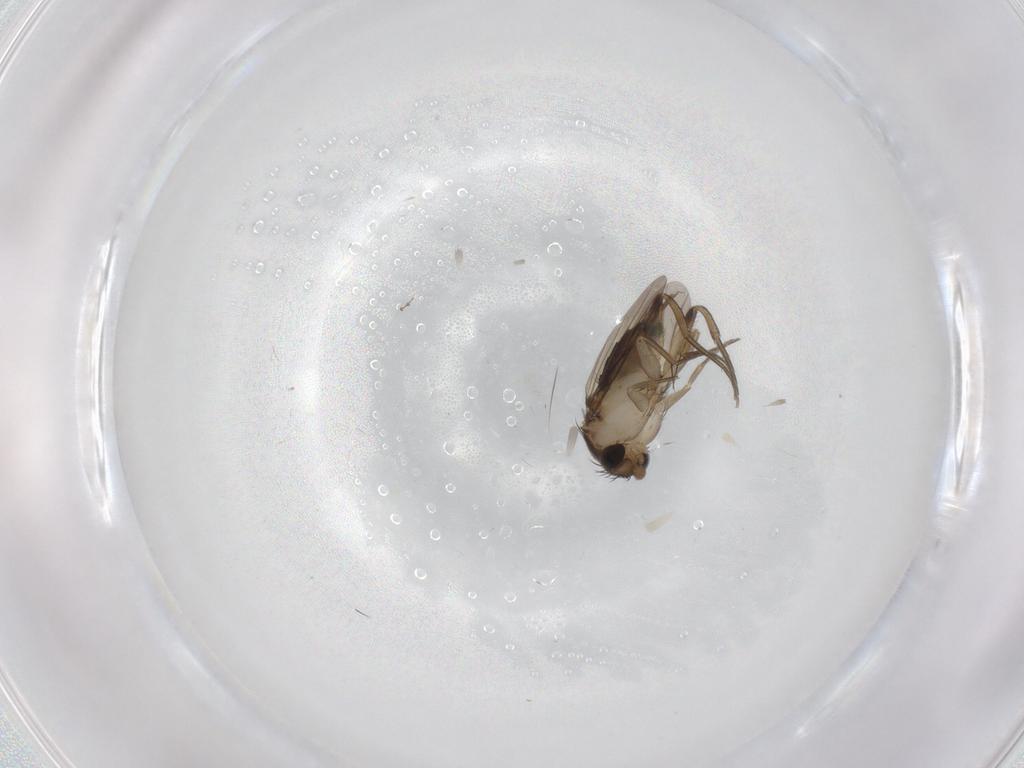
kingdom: Animalia
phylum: Arthropoda
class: Insecta
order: Diptera
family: Phoridae
